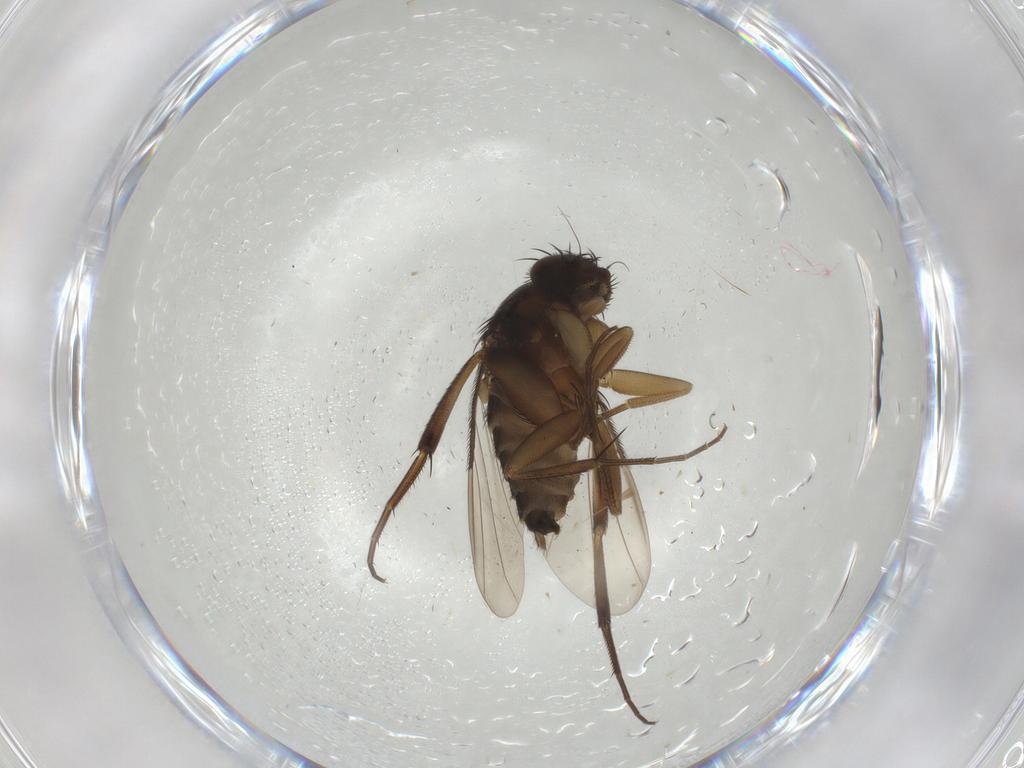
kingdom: Animalia
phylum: Arthropoda
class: Insecta
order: Diptera
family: Phoridae
